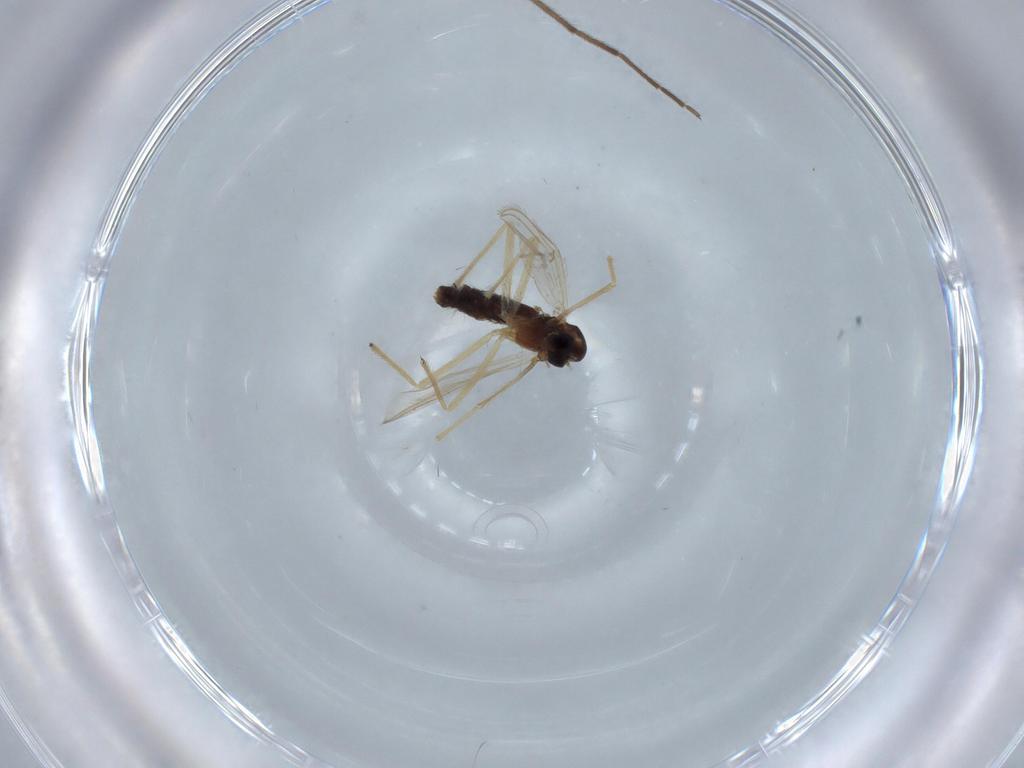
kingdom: Animalia
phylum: Arthropoda
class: Insecta
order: Diptera
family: Chironomidae
